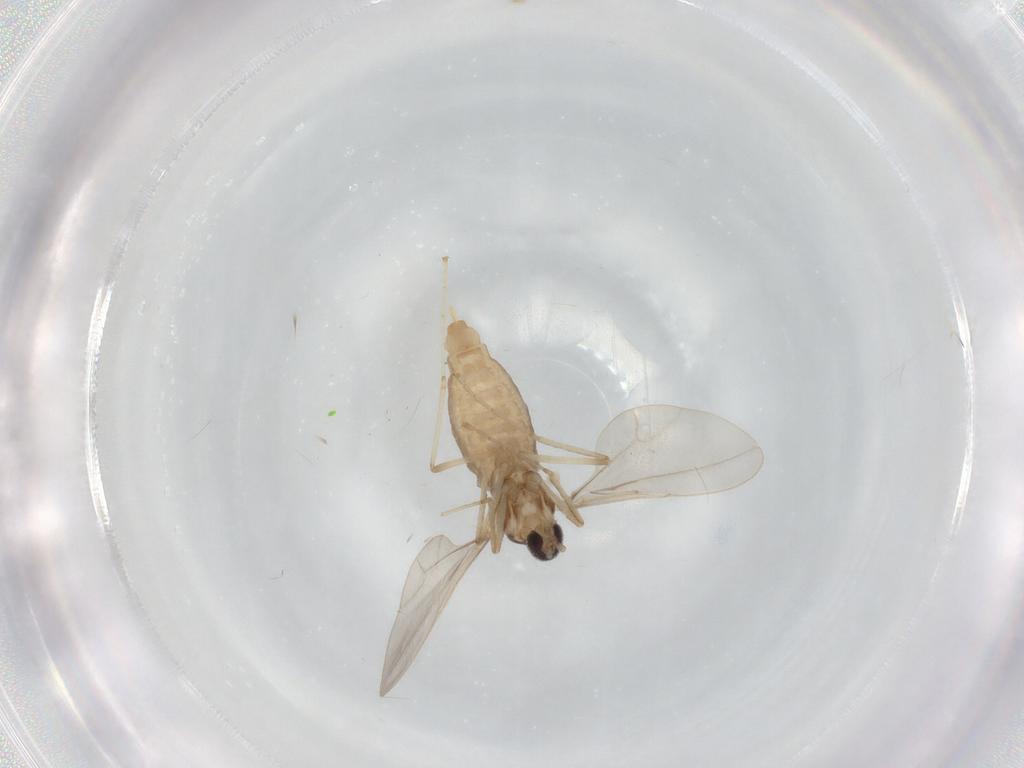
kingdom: Animalia
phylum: Arthropoda
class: Insecta
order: Diptera
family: Cecidomyiidae
